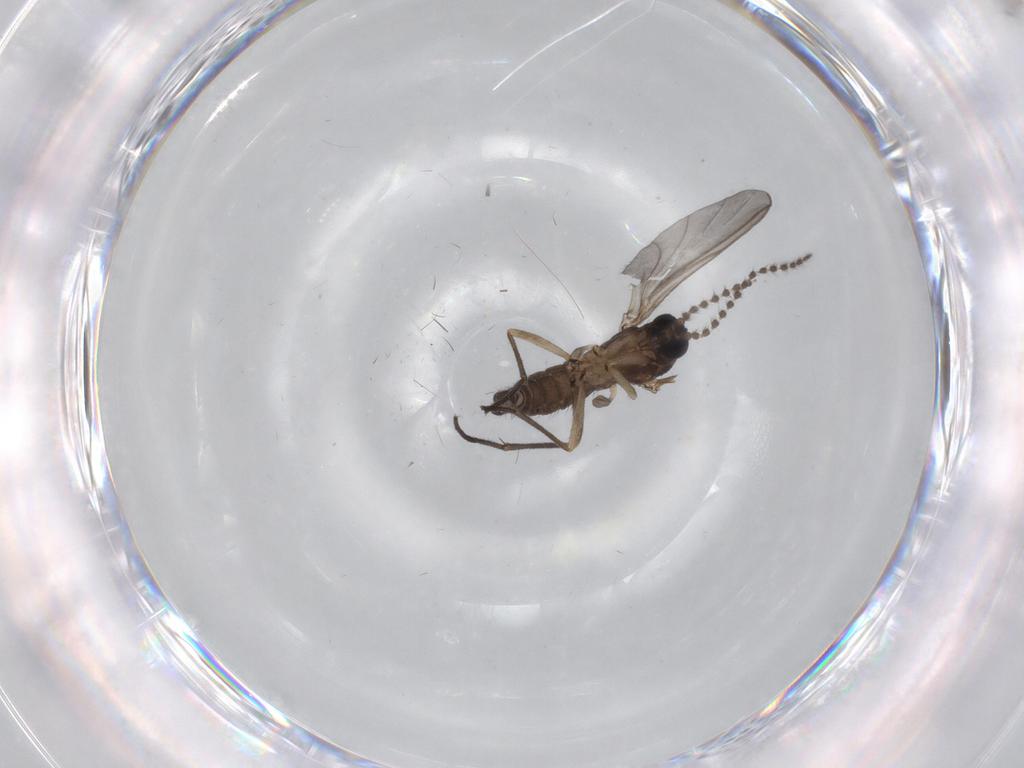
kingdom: Animalia
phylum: Arthropoda
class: Insecta
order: Diptera
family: Sciaridae
